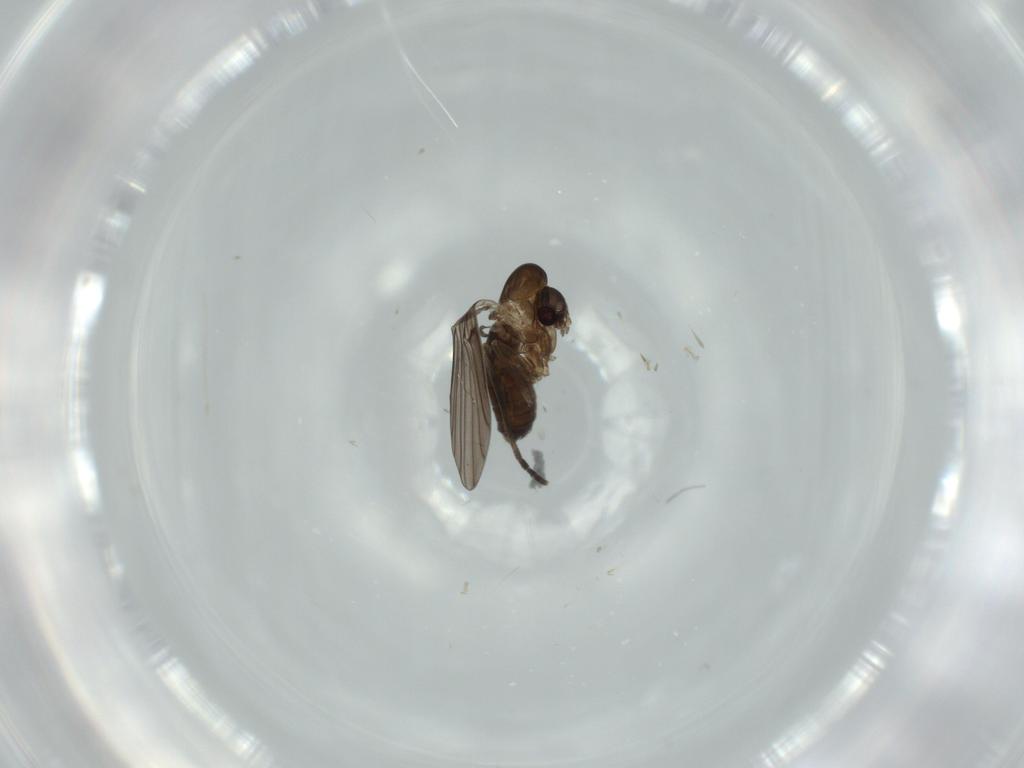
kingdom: Animalia
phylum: Arthropoda
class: Insecta
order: Diptera
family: Psychodidae
